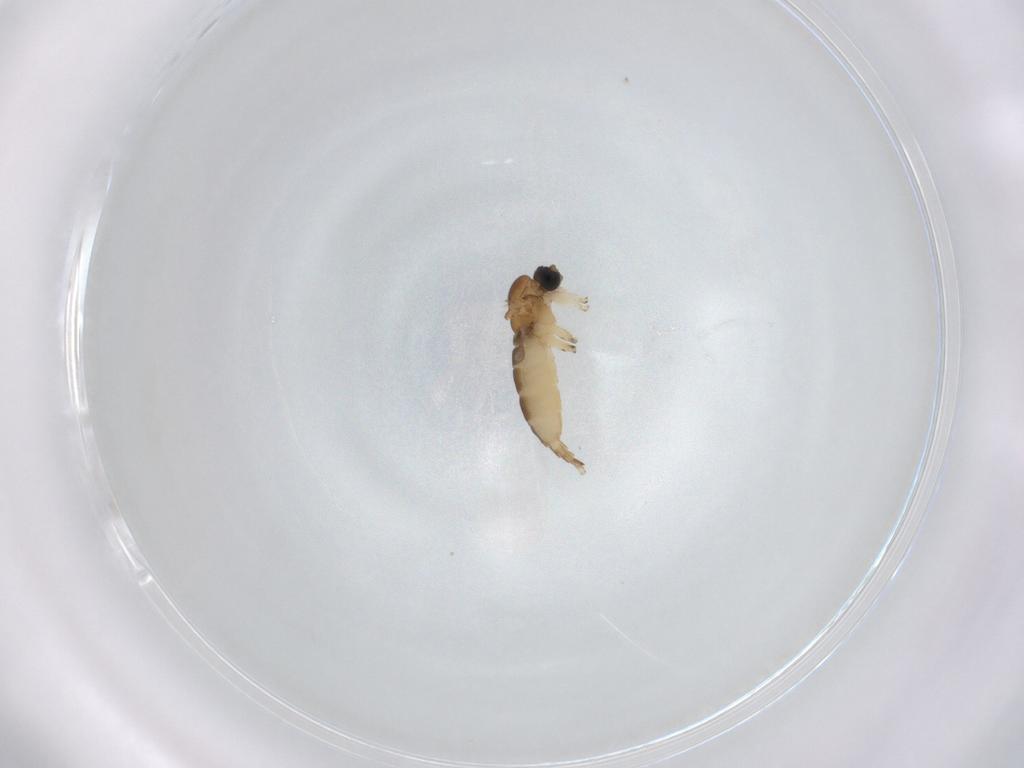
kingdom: Animalia
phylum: Arthropoda
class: Insecta
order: Diptera
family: Sciaridae
